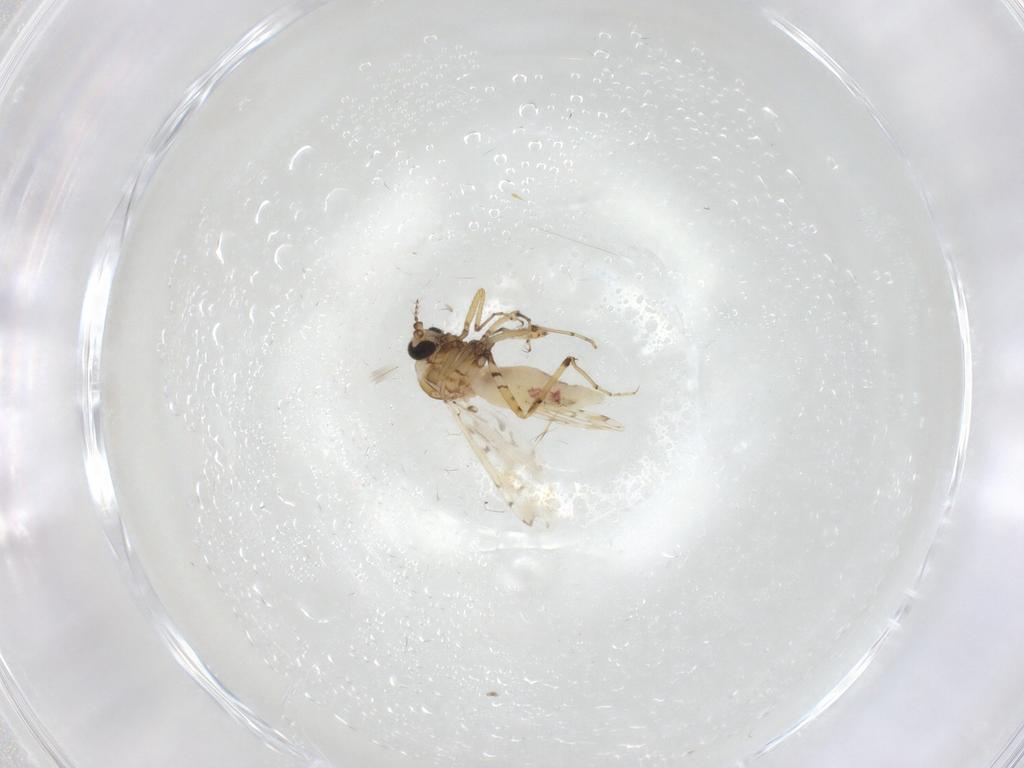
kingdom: Animalia
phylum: Arthropoda
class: Insecta
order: Diptera
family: Ceratopogonidae
